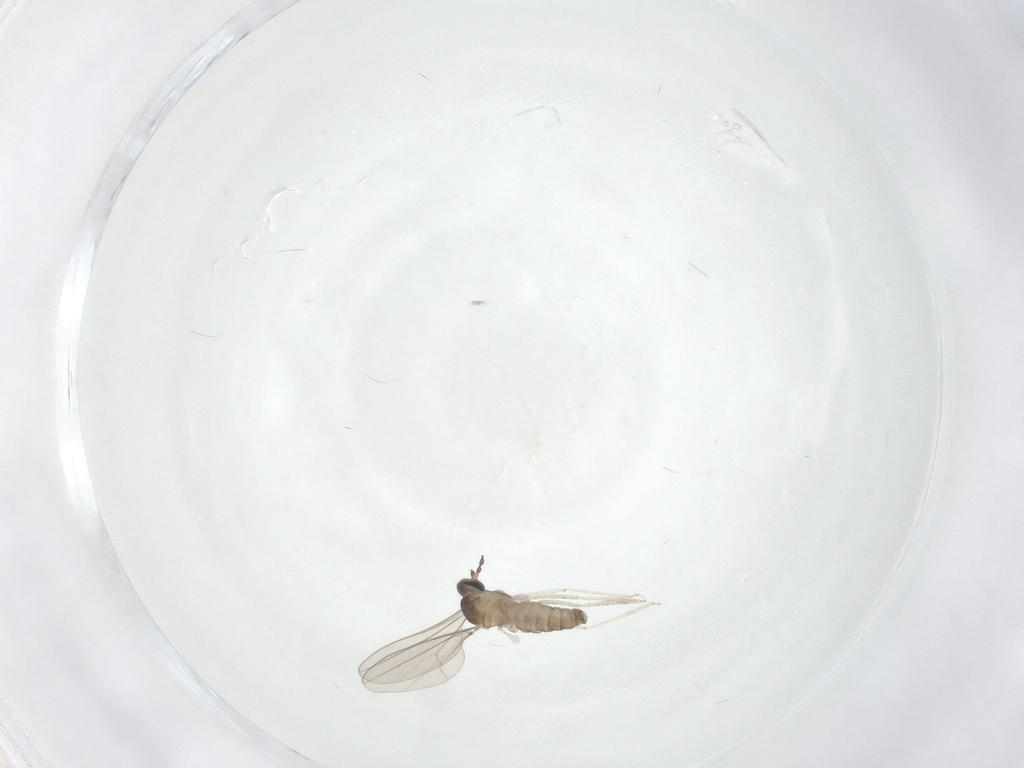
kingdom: Animalia
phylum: Arthropoda
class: Insecta
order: Diptera
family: Cecidomyiidae
